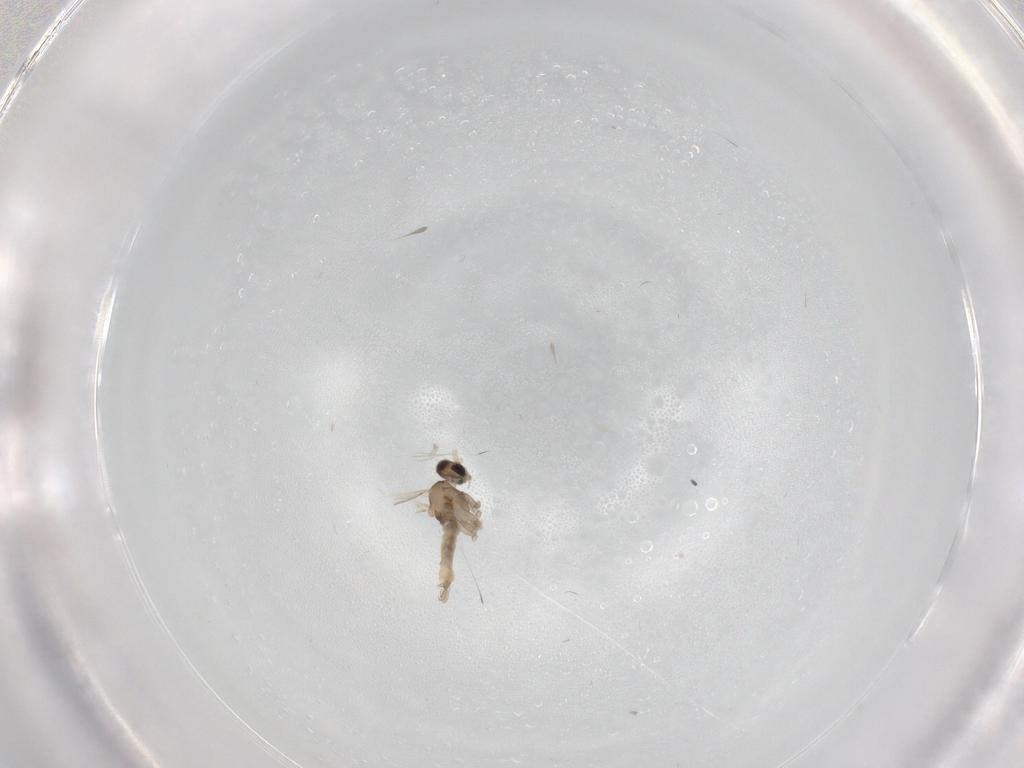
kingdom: Animalia
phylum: Arthropoda
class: Insecta
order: Diptera
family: Cecidomyiidae
